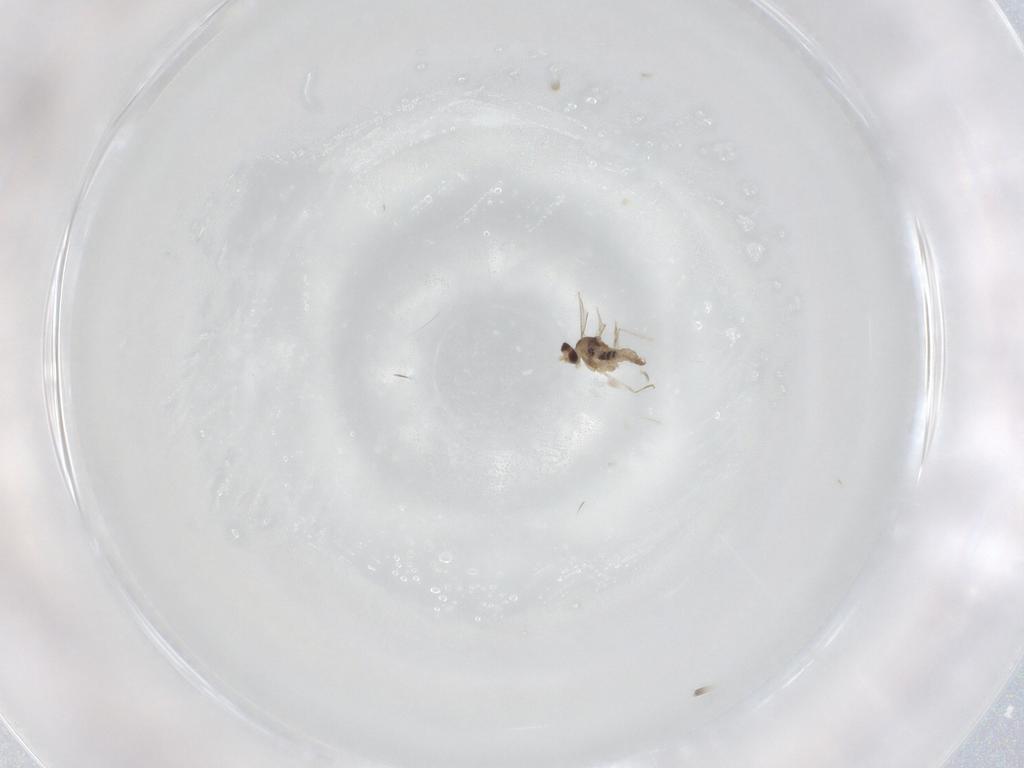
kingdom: Animalia
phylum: Arthropoda
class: Insecta
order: Diptera
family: Cecidomyiidae
